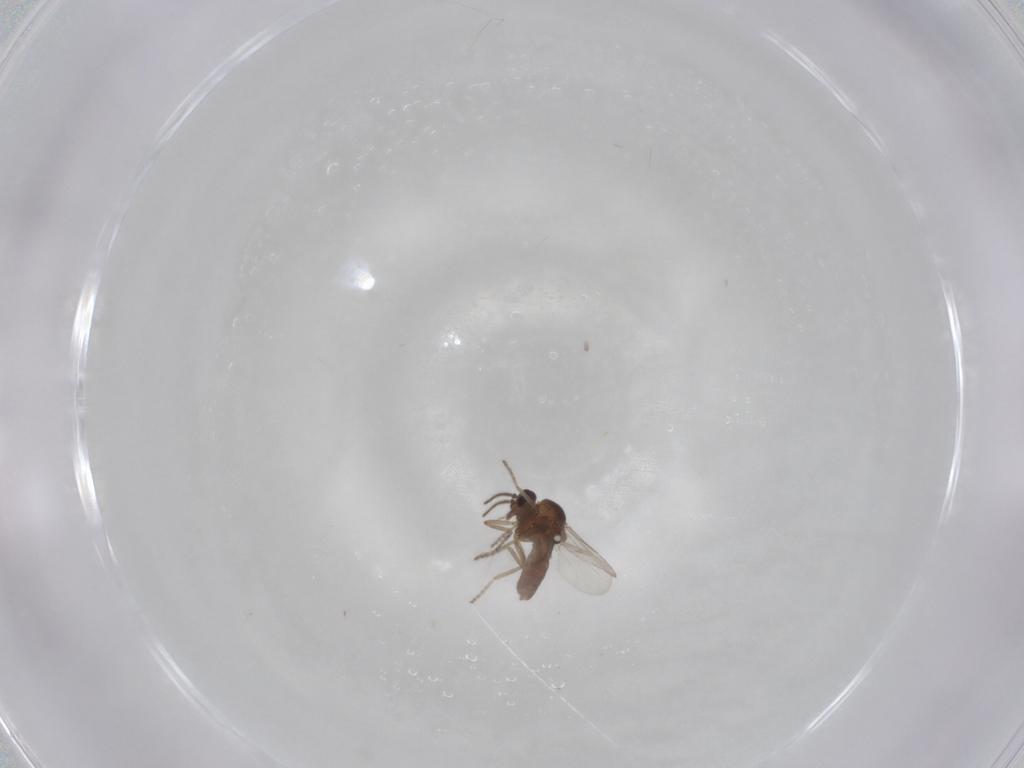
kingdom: Animalia
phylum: Arthropoda
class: Insecta
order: Diptera
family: Ceratopogonidae
